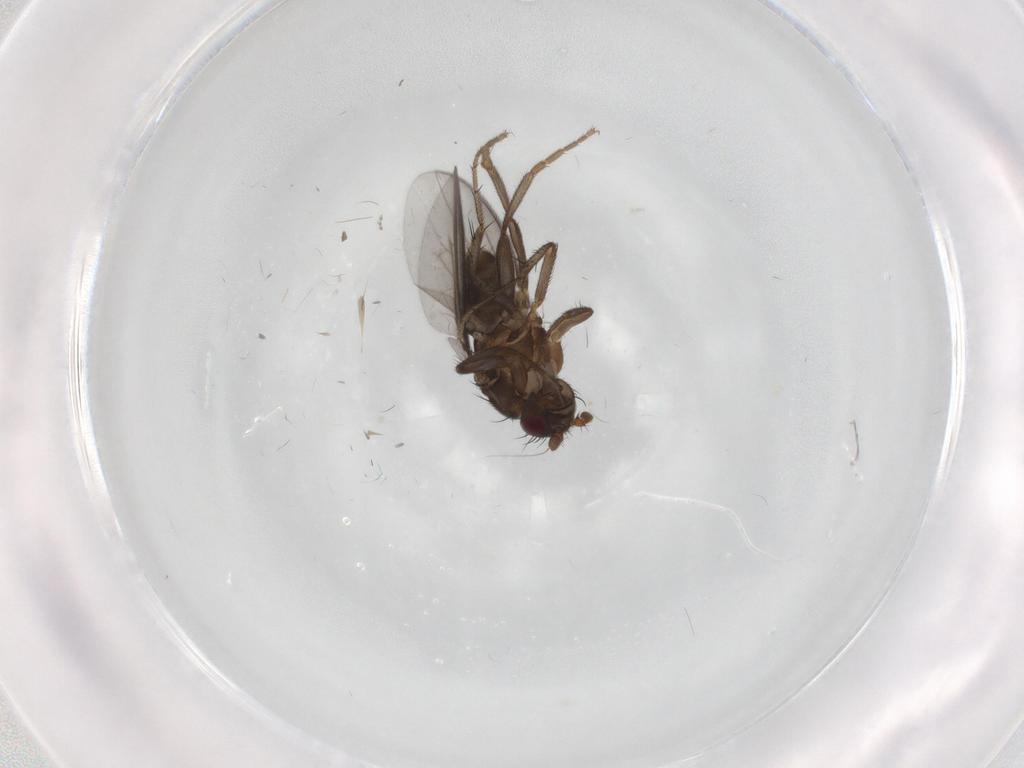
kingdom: Animalia
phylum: Arthropoda
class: Insecta
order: Diptera
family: Sphaeroceridae
